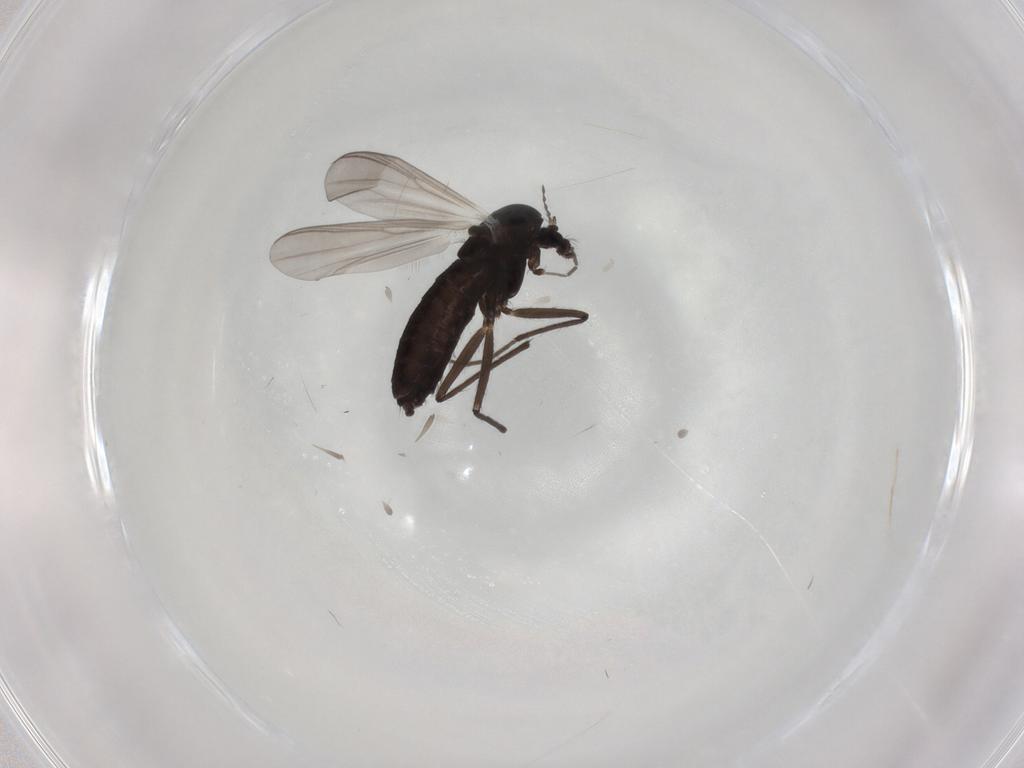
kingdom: Animalia
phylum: Arthropoda
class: Insecta
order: Diptera
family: Chironomidae
